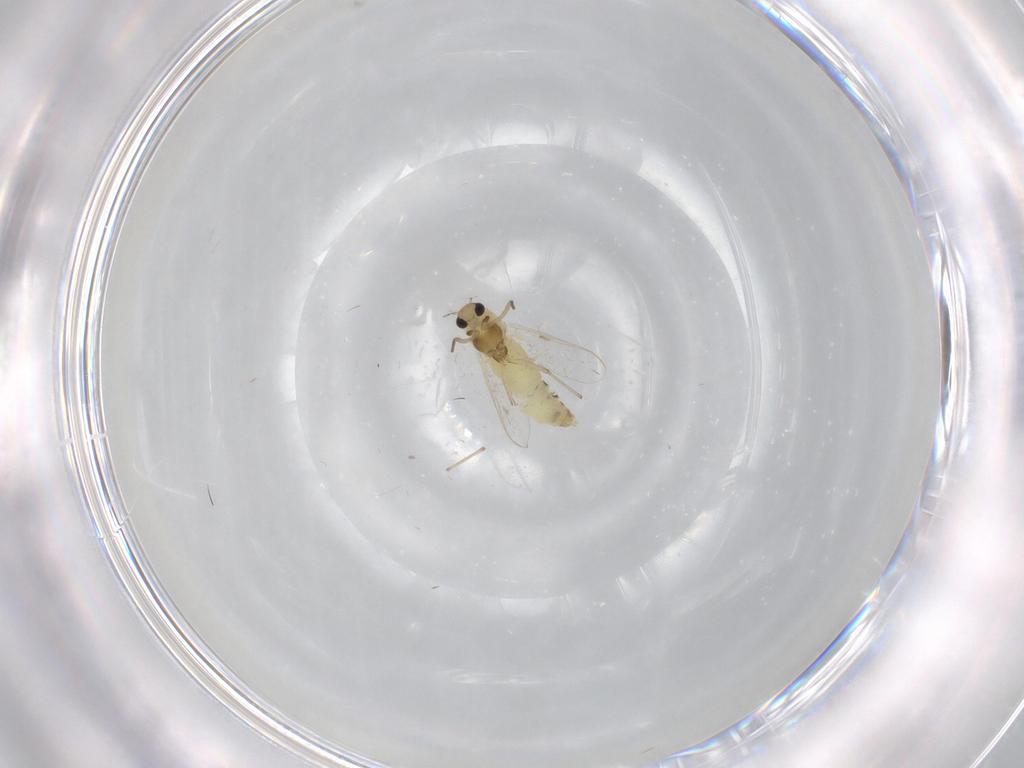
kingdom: Animalia
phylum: Arthropoda
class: Insecta
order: Diptera
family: Chironomidae
